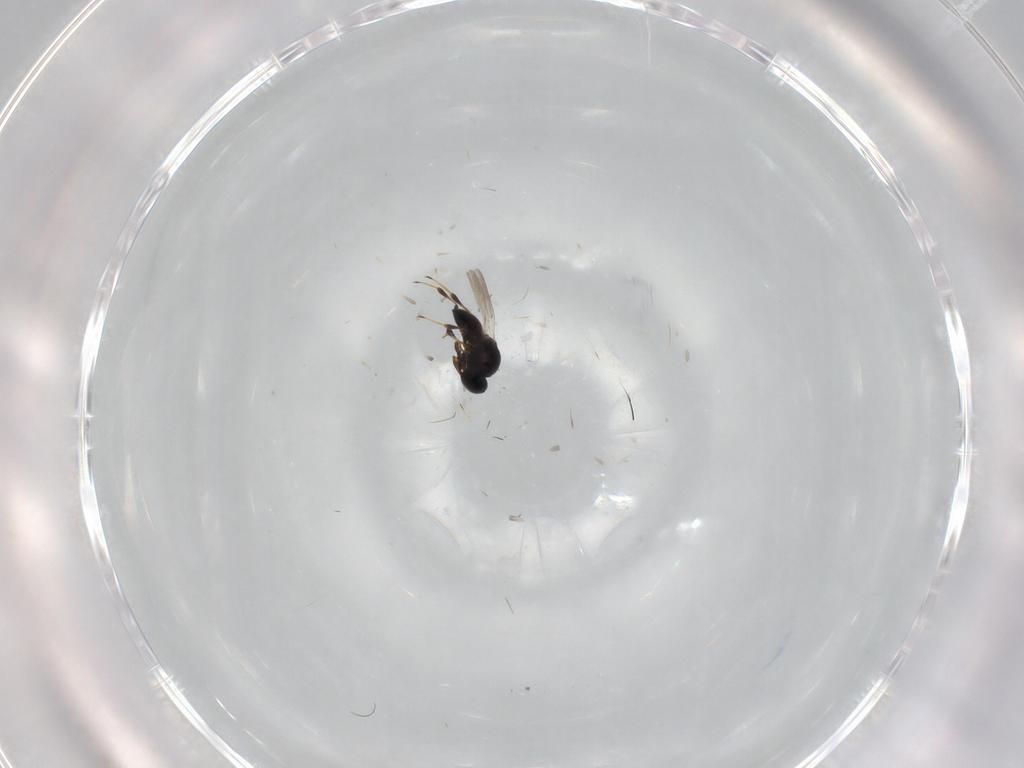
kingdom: Animalia
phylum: Arthropoda
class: Insecta
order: Hymenoptera
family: Platygastridae
